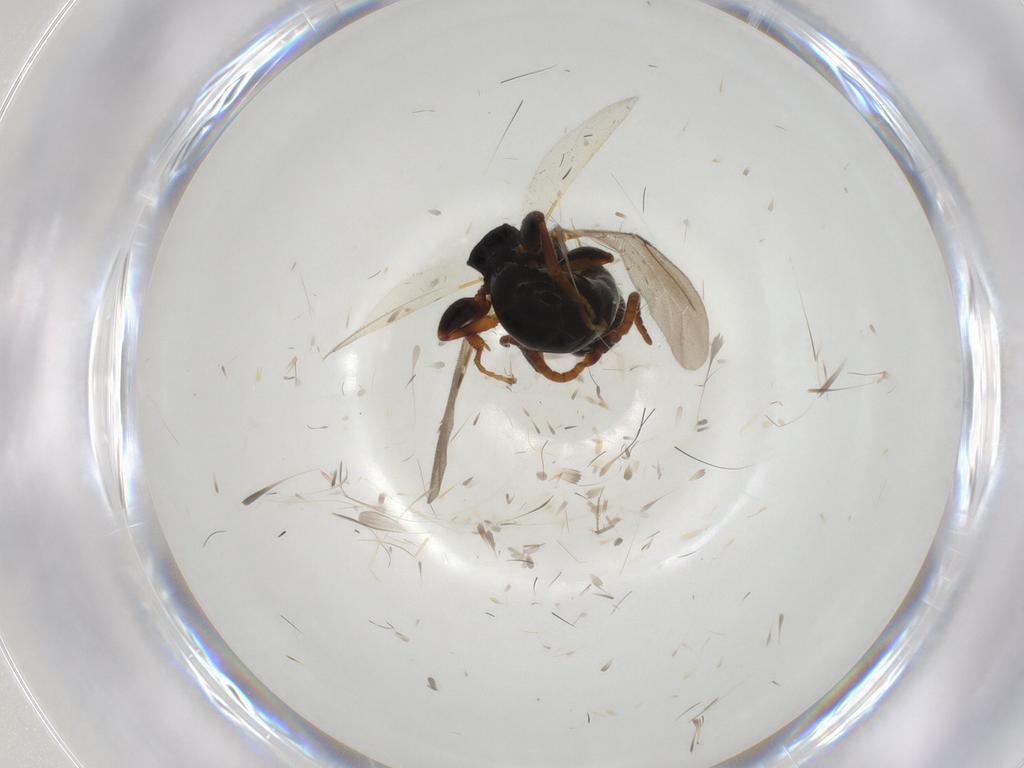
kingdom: Animalia
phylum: Arthropoda
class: Insecta
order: Hymenoptera
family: Bethylidae
